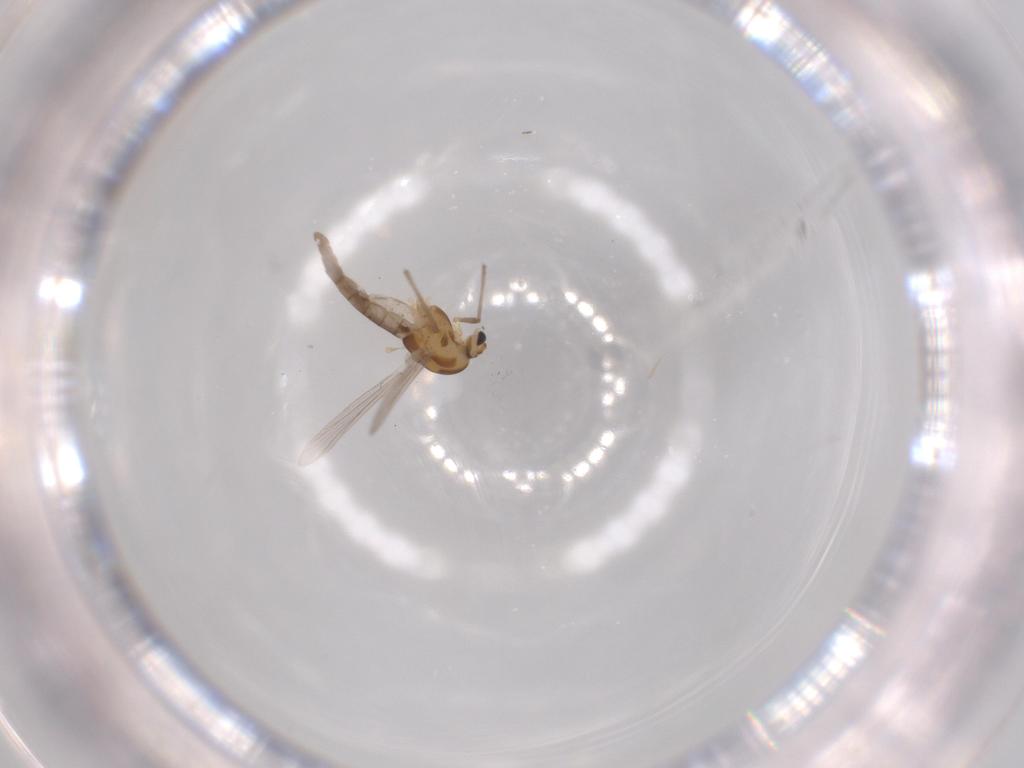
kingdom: Animalia
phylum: Arthropoda
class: Insecta
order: Diptera
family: Chironomidae
